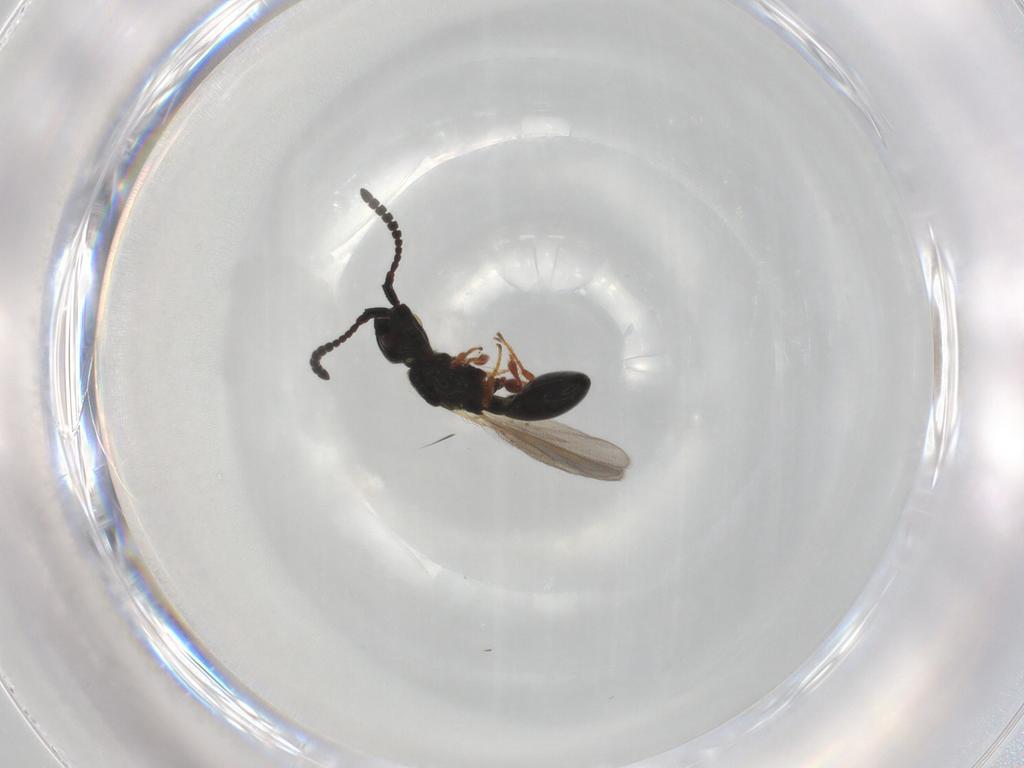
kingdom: Animalia
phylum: Arthropoda
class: Insecta
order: Hymenoptera
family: Diapriidae
